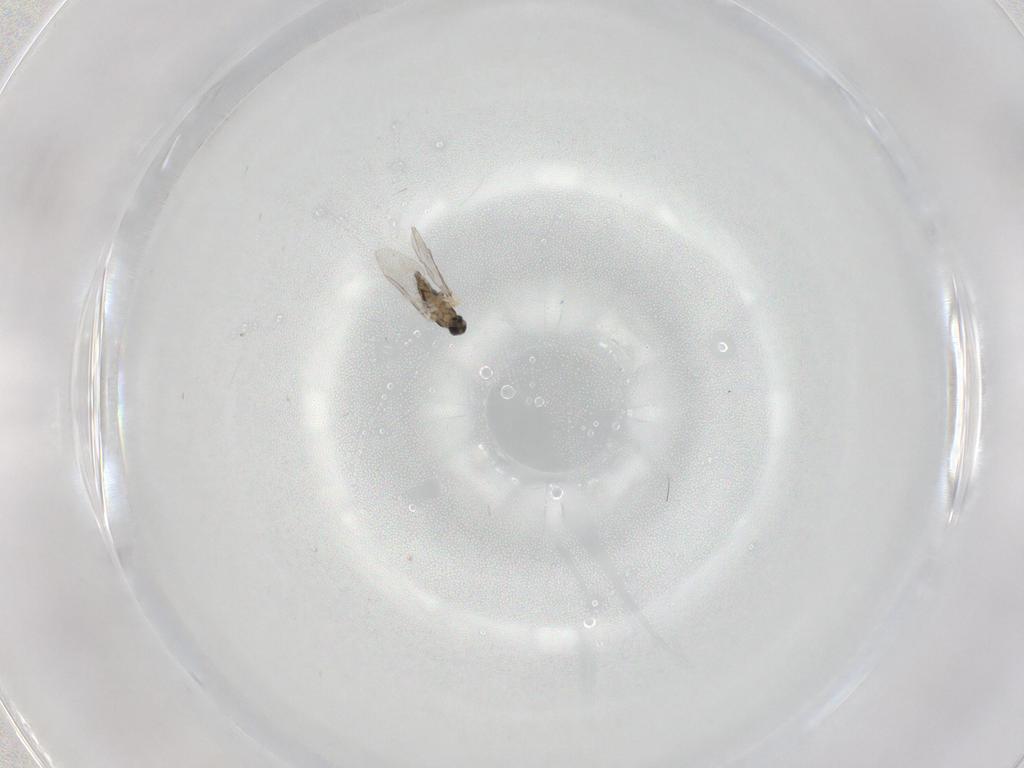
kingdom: Animalia
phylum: Arthropoda
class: Insecta
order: Diptera
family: Cecidomyiidae
